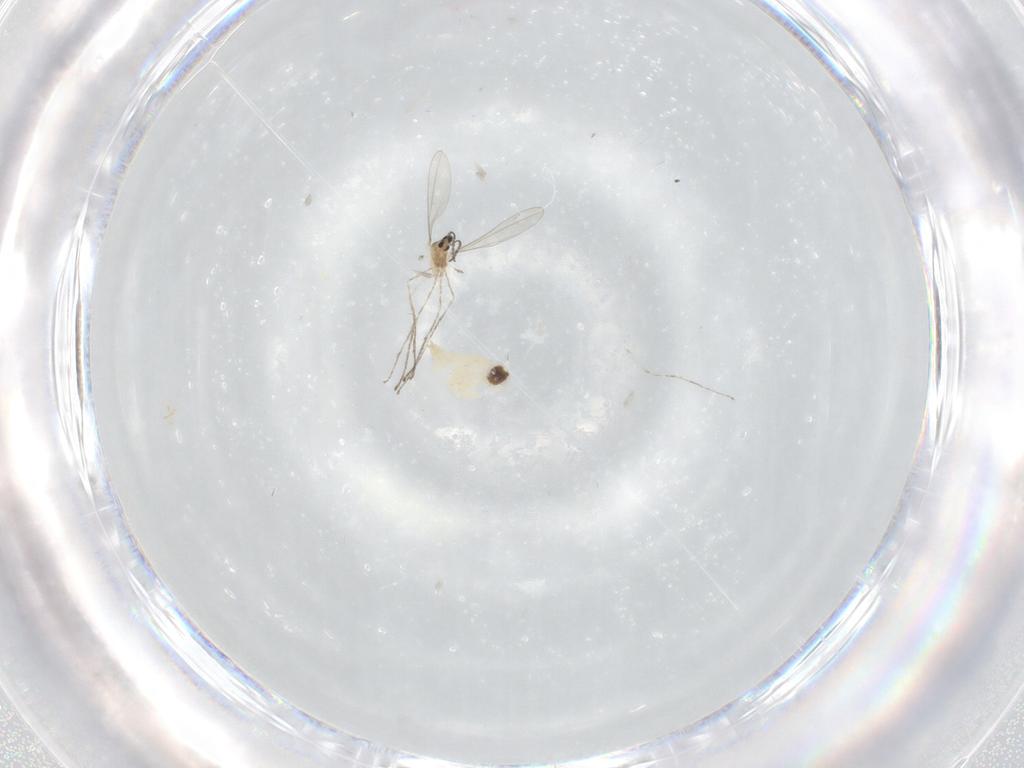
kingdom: Animalia
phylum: Arthropoda
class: Insecta
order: Diptera
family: Cecidomyiidae
